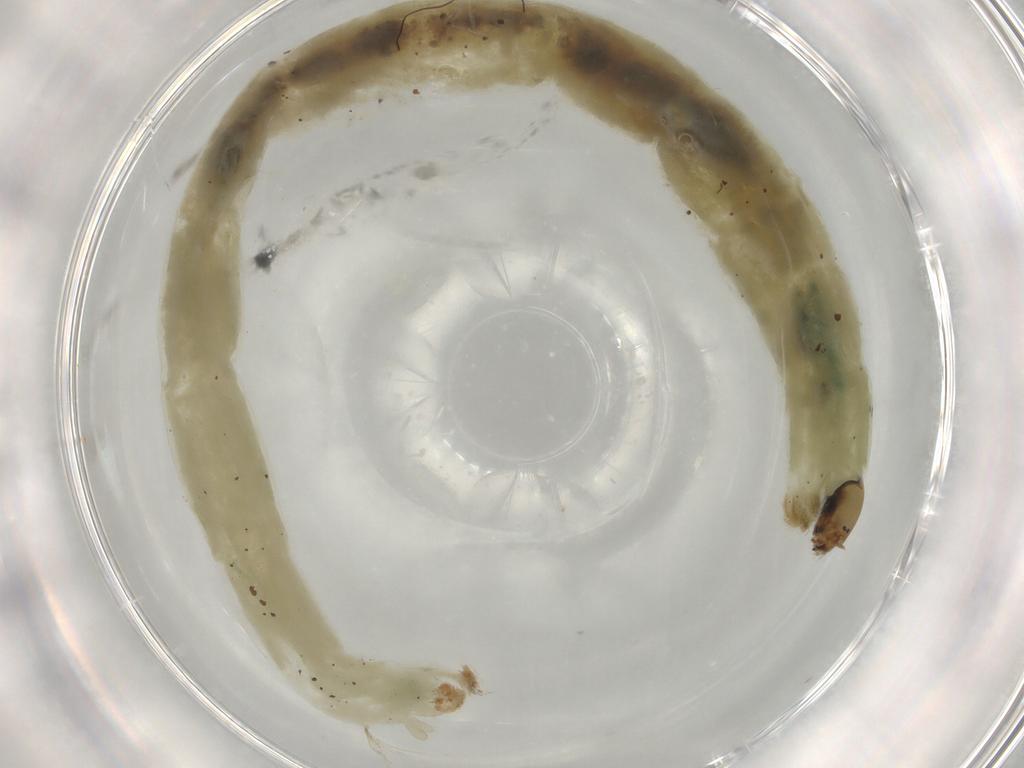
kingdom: Animalia
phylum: Arthropoda
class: Insecta
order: Diptera
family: Chironomidae
